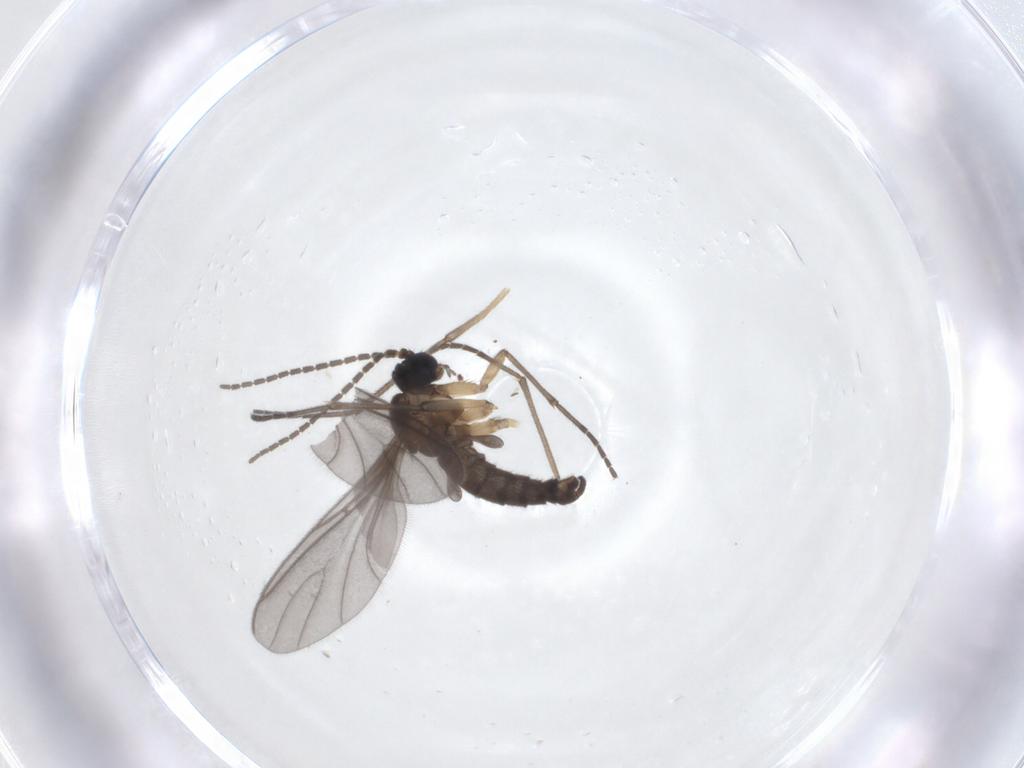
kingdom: Animalia
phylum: Arthropoda
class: Insecta
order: Diptera
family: Sciaridae
